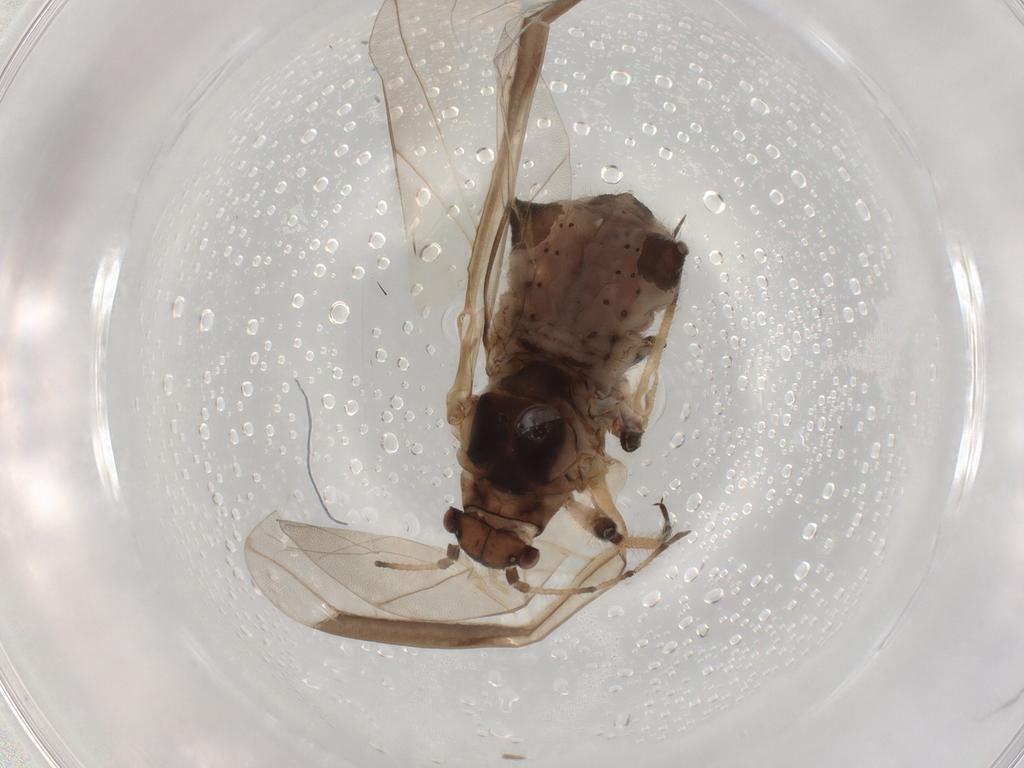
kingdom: Animalia
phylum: Arthropoda
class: Insecta
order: Hemiptera
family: Aphididae
